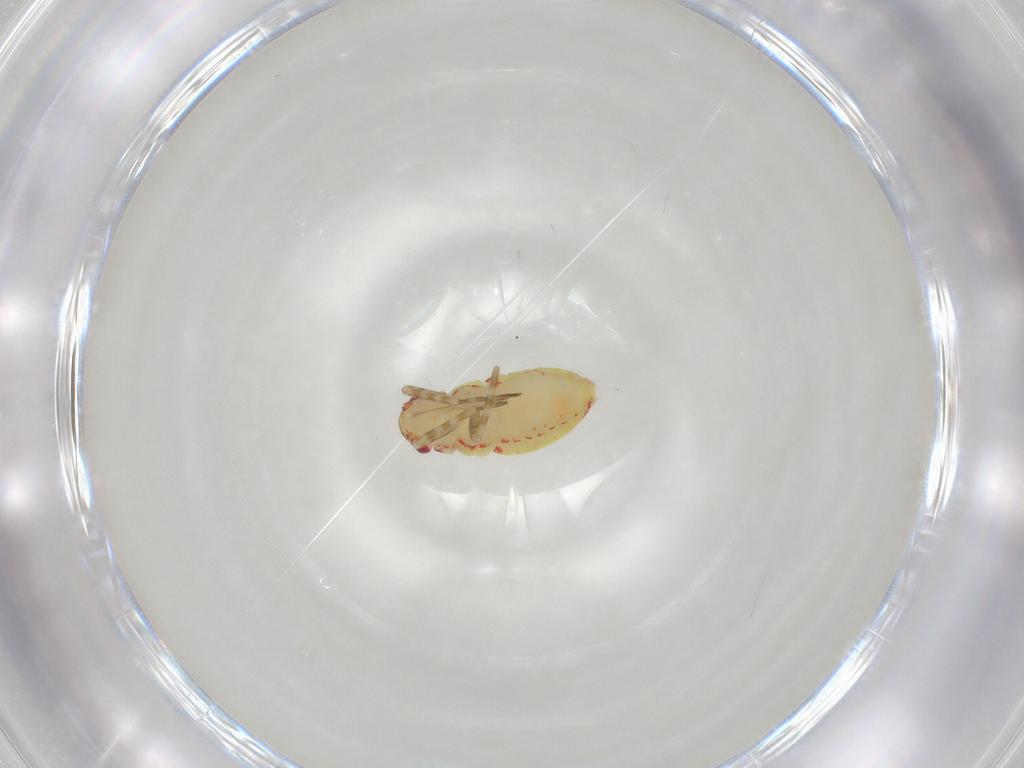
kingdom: Animalia
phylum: Arthropoda
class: Insecta
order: Hemiptera
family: Miridae
